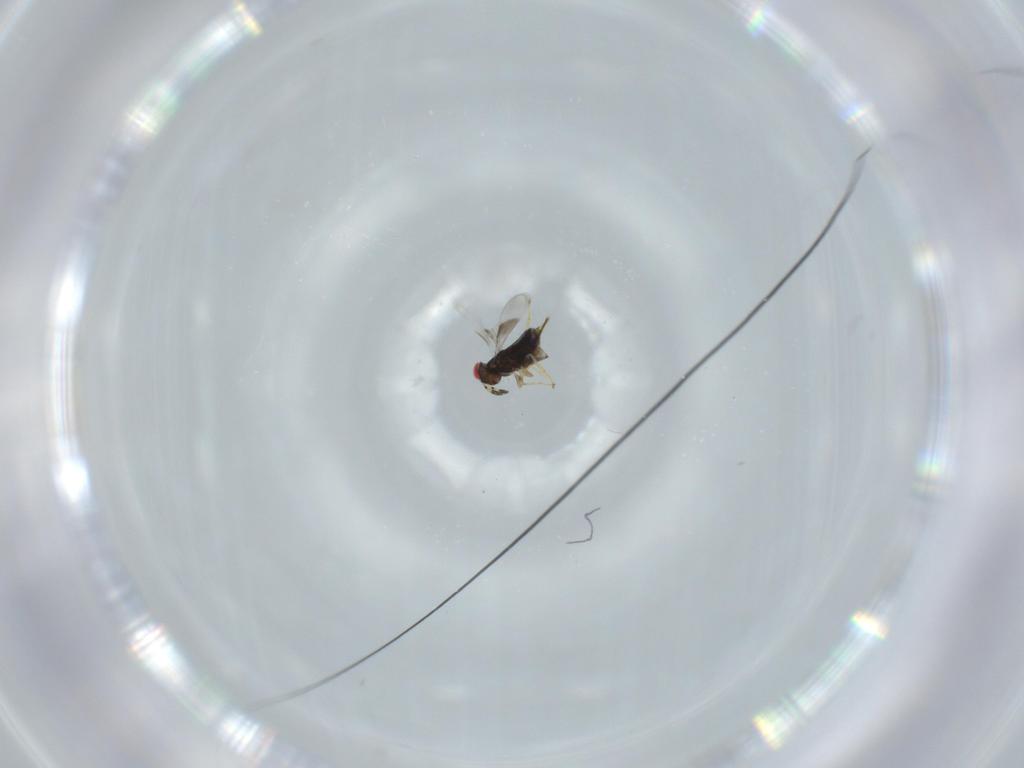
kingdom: Animalia
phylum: Arthropoda
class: Insecta
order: Hymenoptera
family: Azotidae
